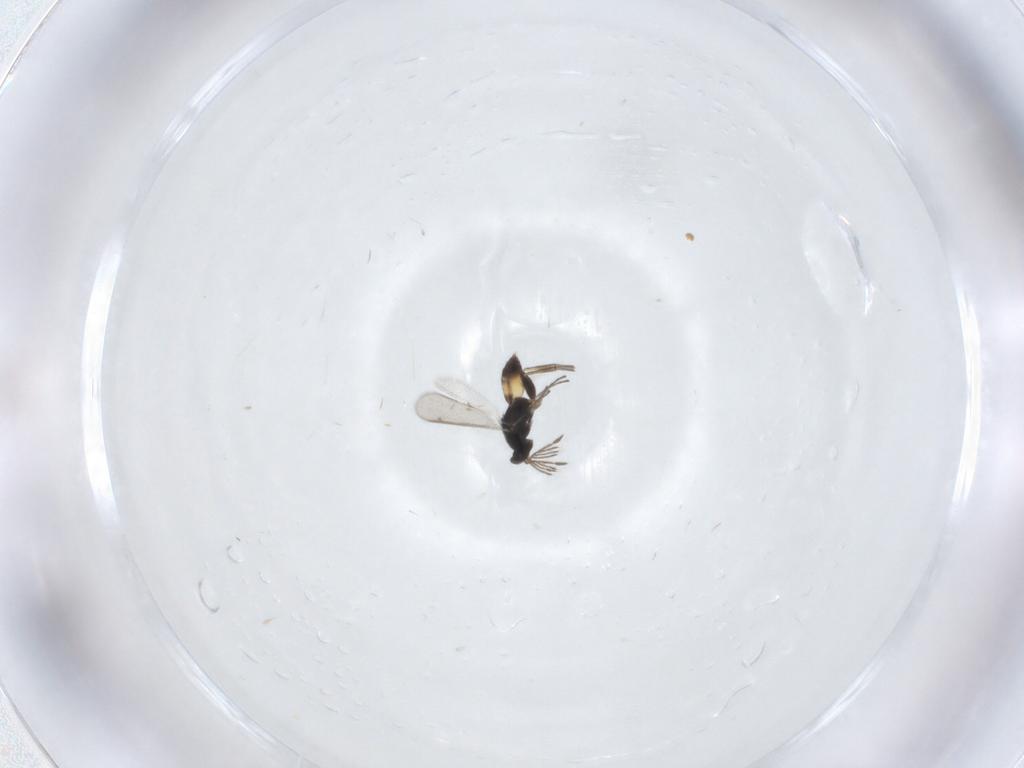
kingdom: Animalia
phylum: Arthropoda
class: Insecta
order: Hymenoptera
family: Eulophidae
